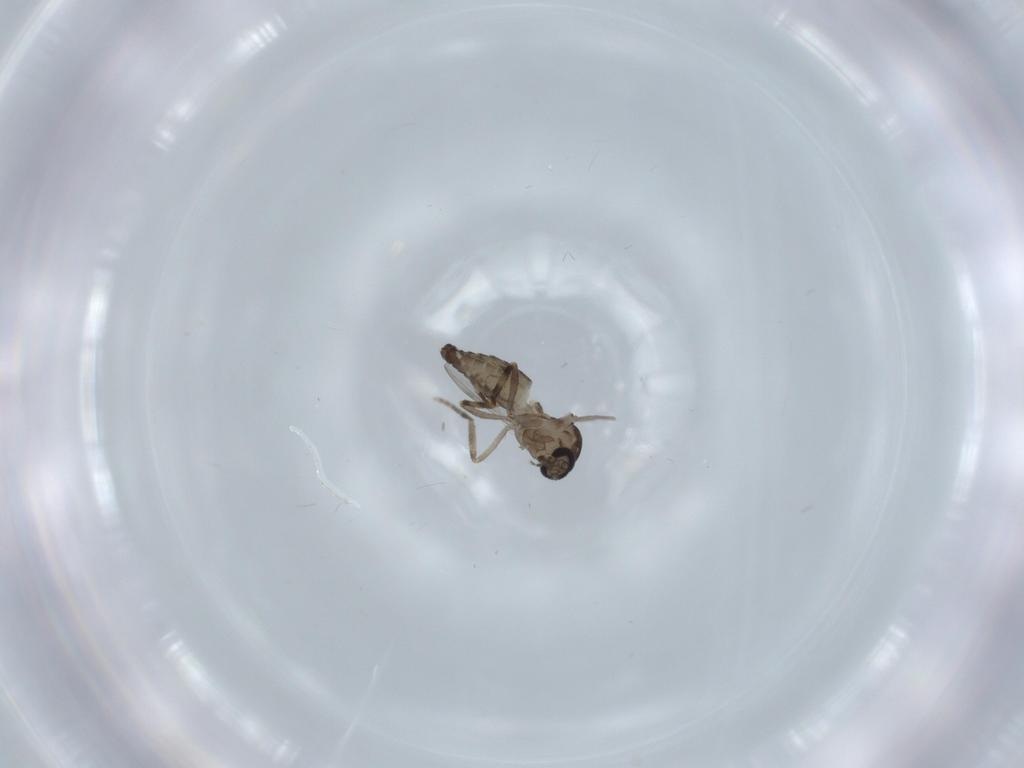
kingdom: Animalia
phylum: Arthropoda
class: Insecta
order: Diptera
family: Ceratopogonidae
